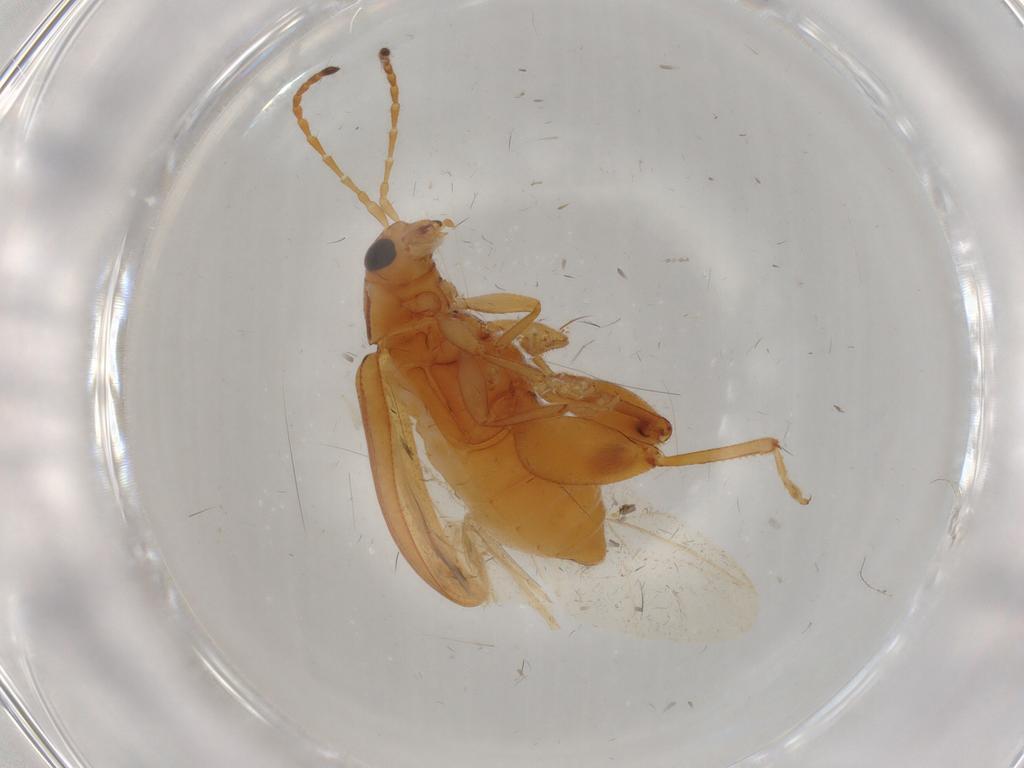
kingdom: Animalia
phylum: Arthropoda
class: Insecta
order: Coleoptera
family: Chrysomelidae
